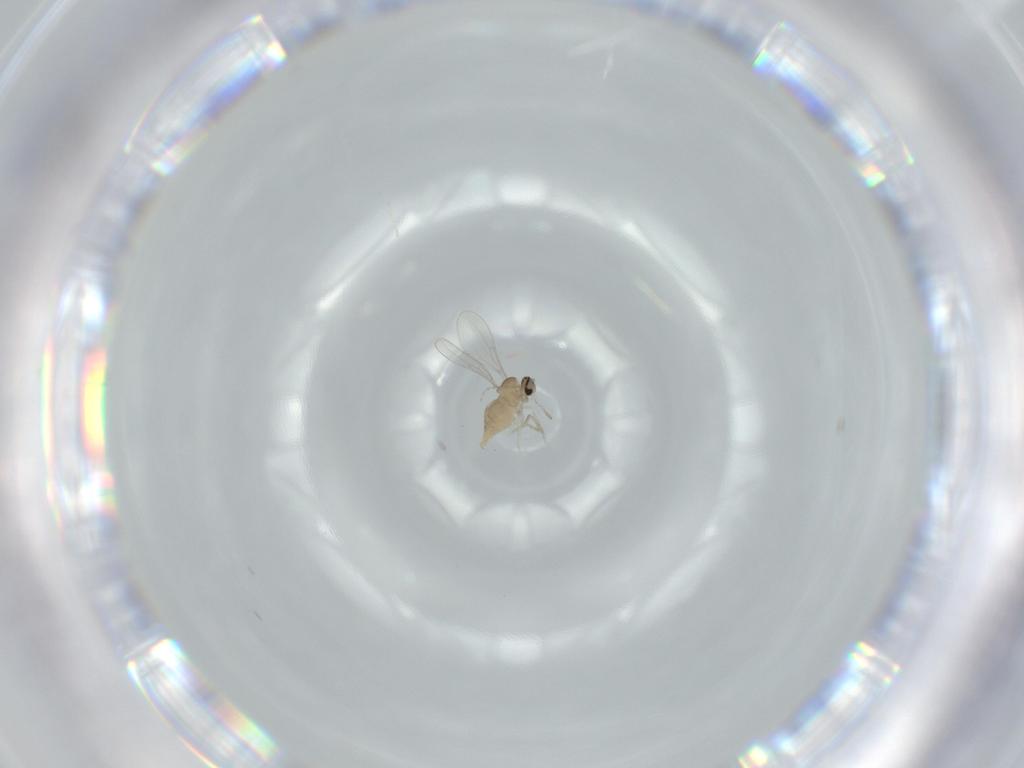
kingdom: Animalia
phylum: Arthropoda
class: Insecta
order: Diptera
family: Cecidomyiidae
